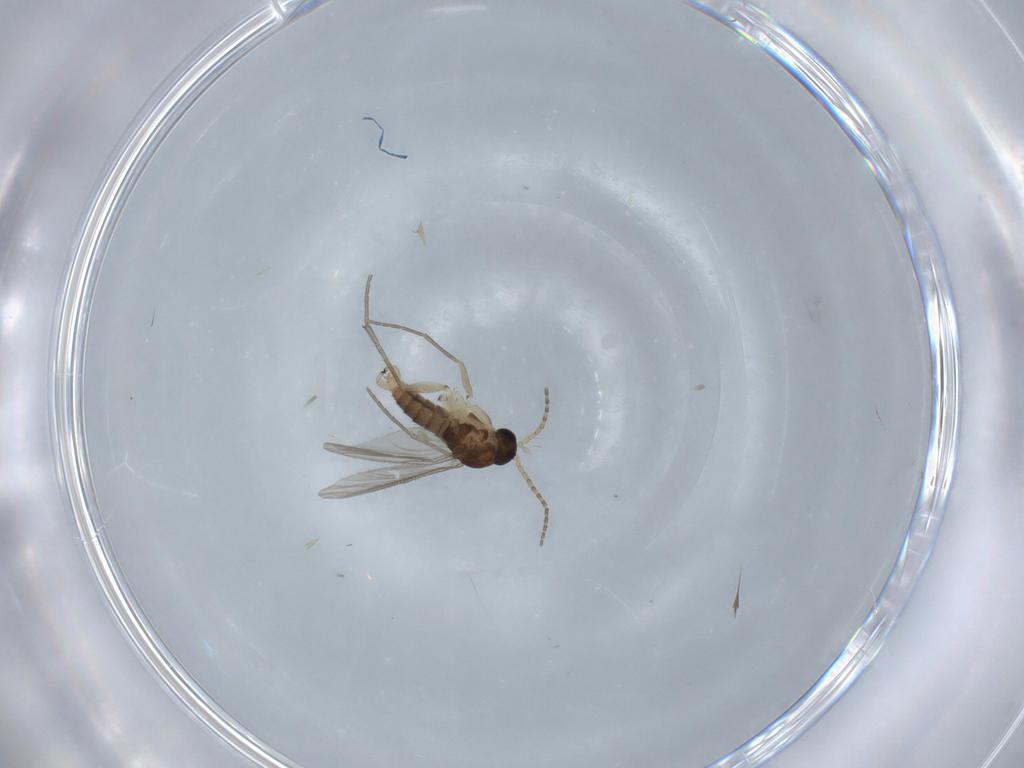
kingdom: Animalia
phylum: Arthropoda
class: Insecta
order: Diptera
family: Sciaridae
